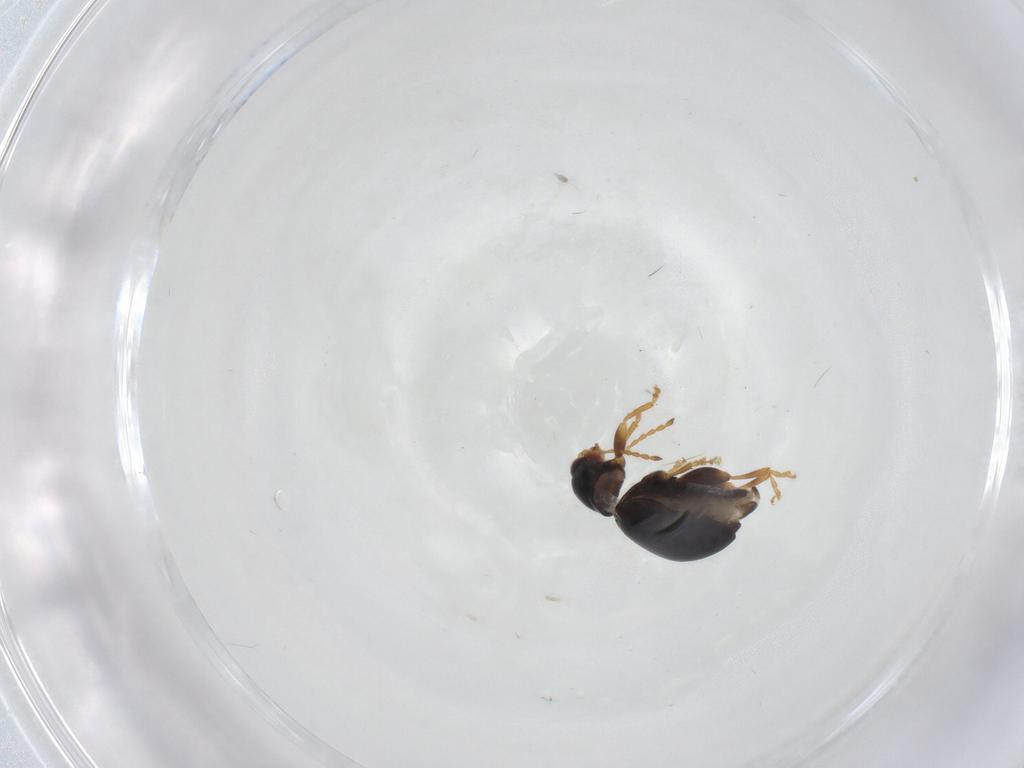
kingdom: Animalia
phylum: Arthropoda
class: Insecta
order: Coleoptera
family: Chrysomelidae
